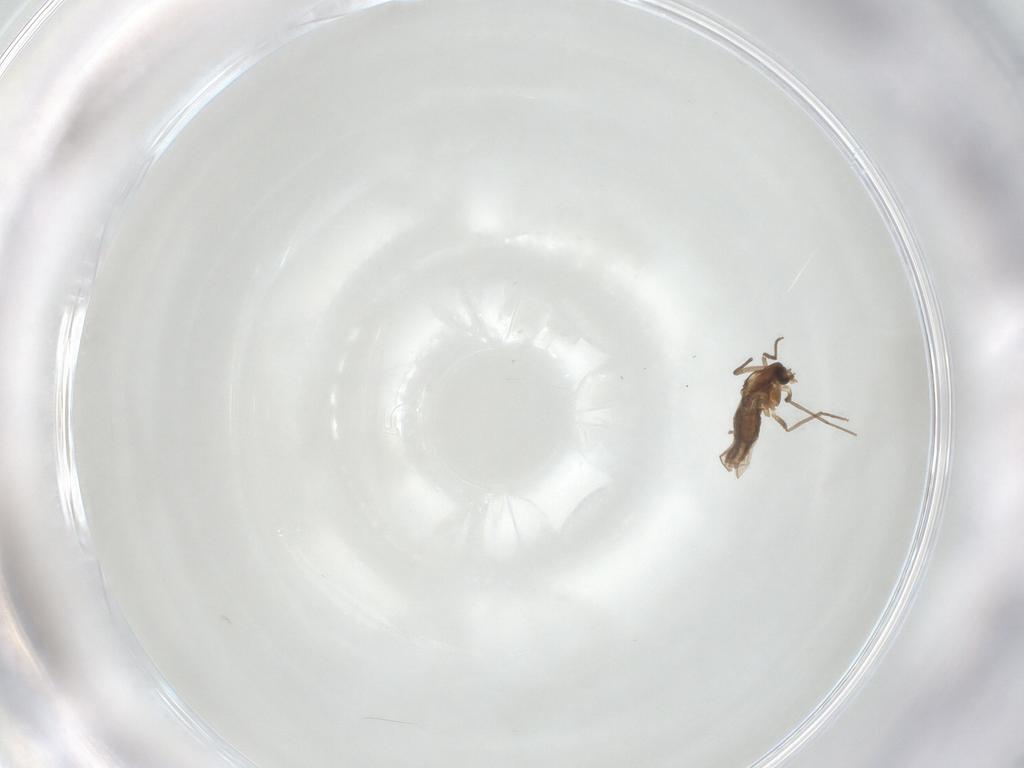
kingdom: Animalia
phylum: Arthropoda
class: Insecta
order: Diptera
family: Chironomidae
